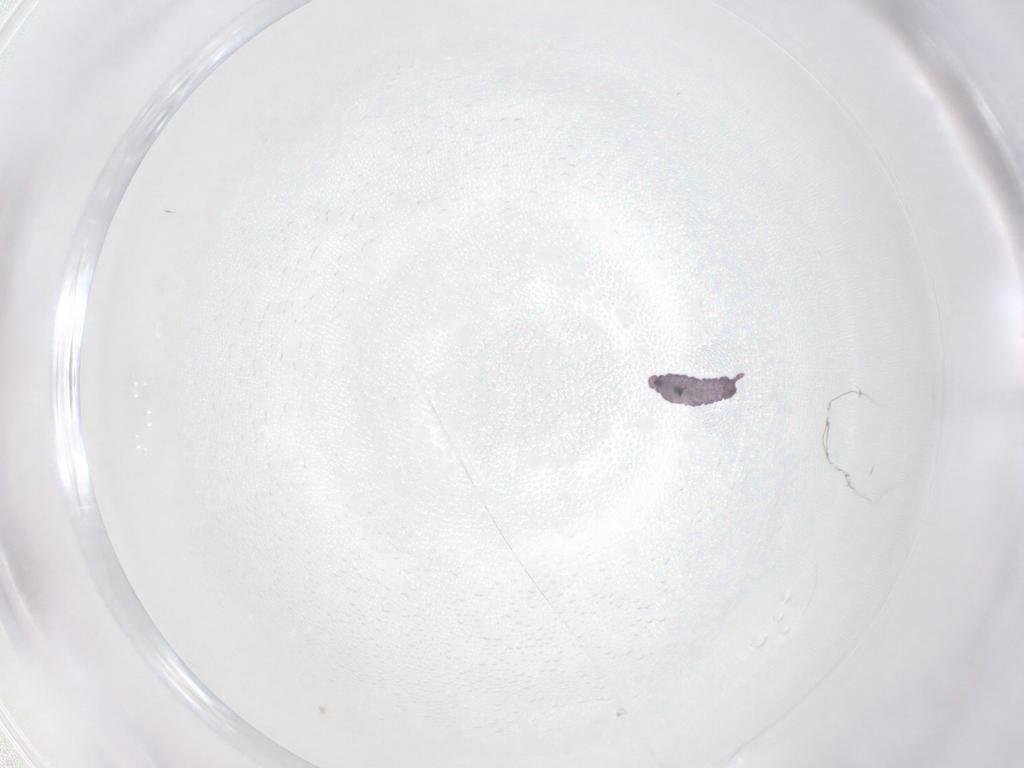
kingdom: Animalia
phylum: Arthropoda
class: Collembola
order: Poduromorpha
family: Hypogastruridae
